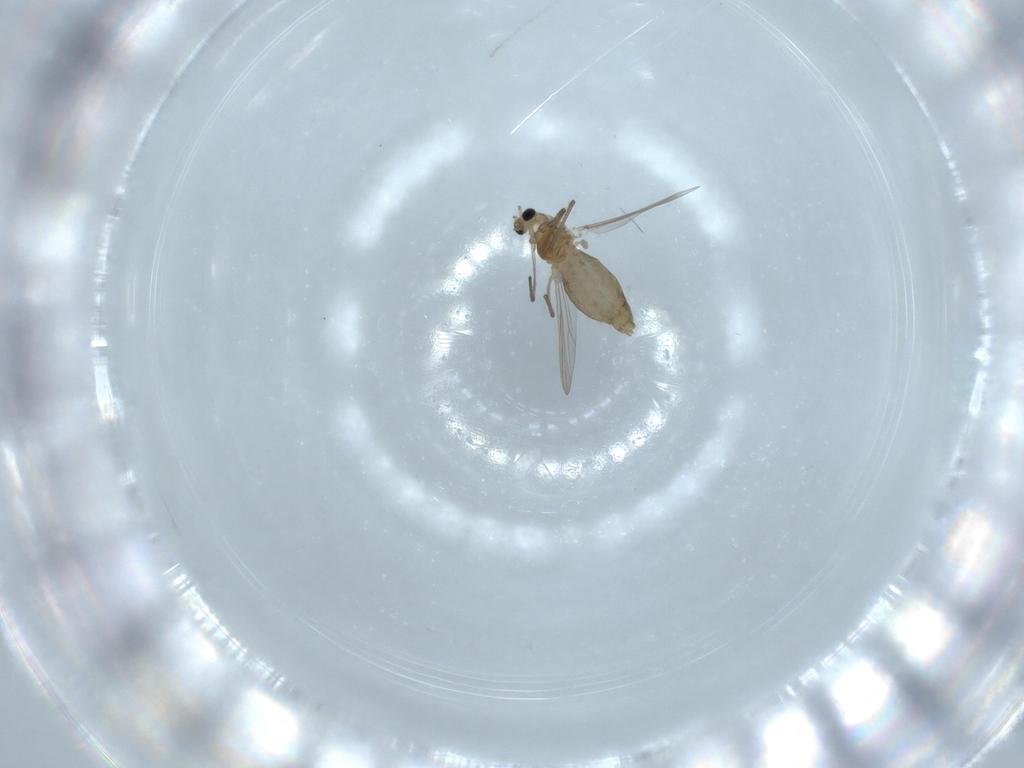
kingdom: Animalia
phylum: Arthropoda
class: Insecta
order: Diptera
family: Chironomidae
